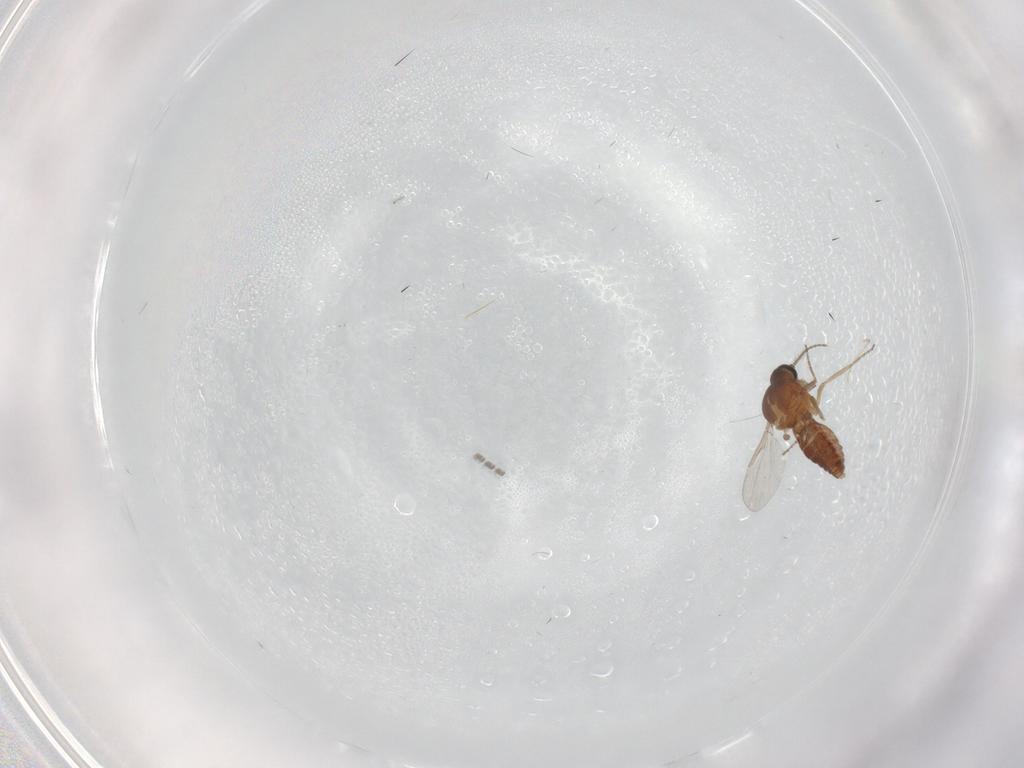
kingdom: Animalia
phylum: Arthropoda
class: Insecta
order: Diptera
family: Ceratopogonidae
